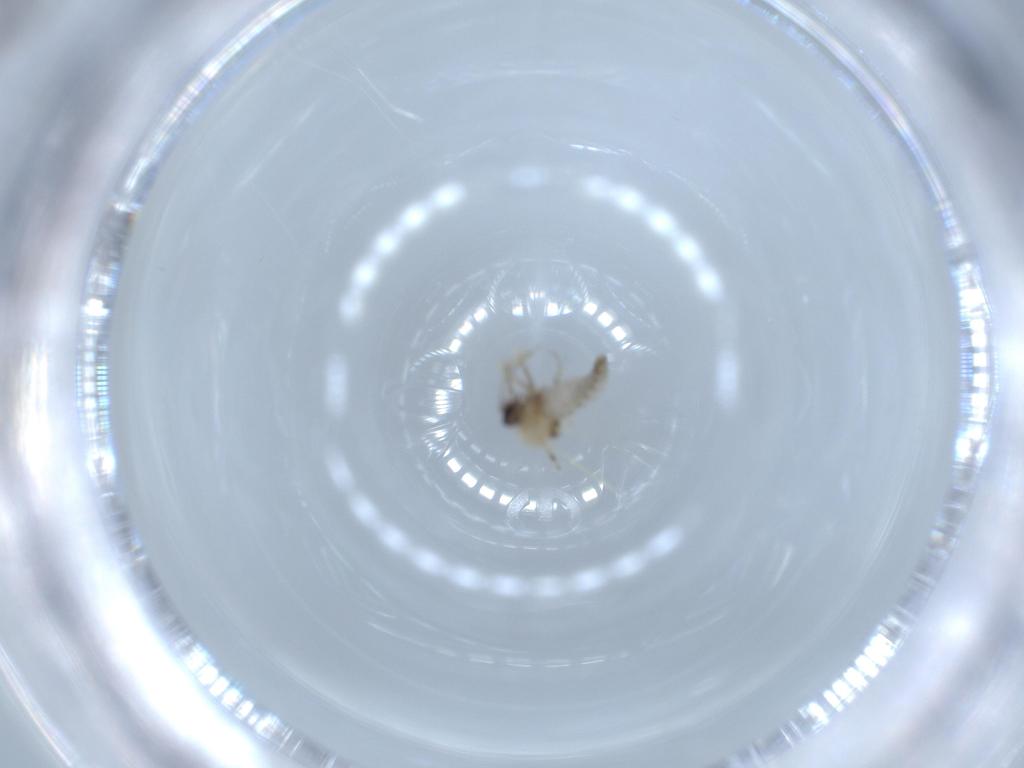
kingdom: Animalia
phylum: Arthropoda
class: Insecta
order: Diptera
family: Ceratopogonidae
